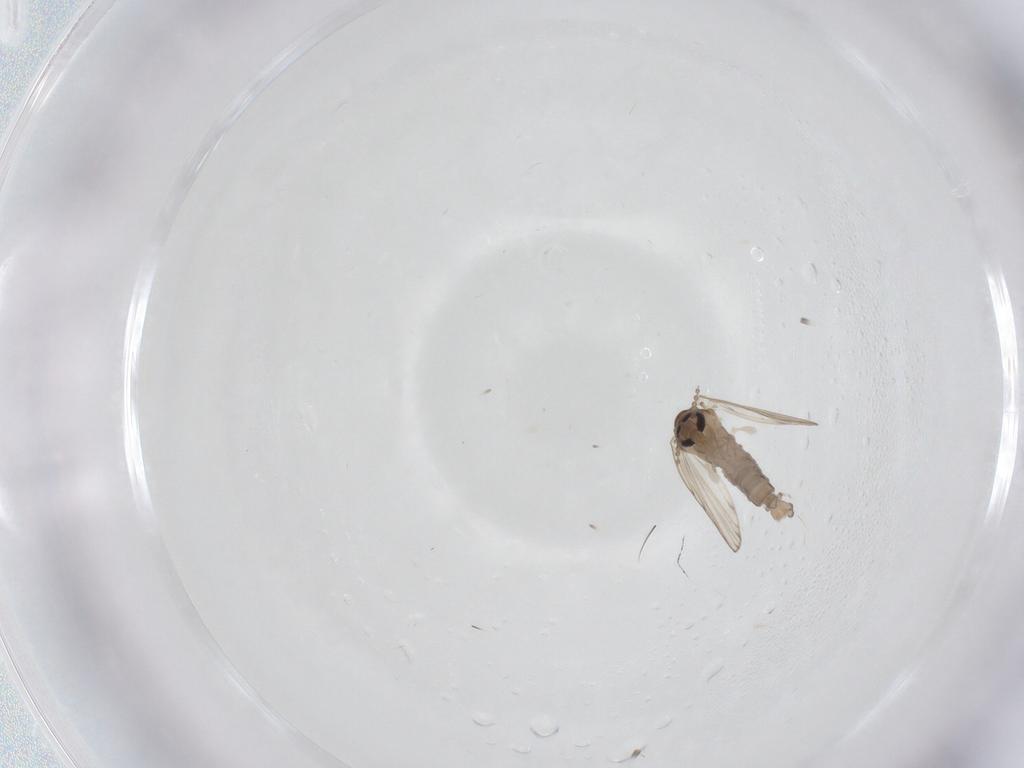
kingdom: Animalia
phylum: Arthropoda
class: Insecta
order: Diptera
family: Psychodidae
